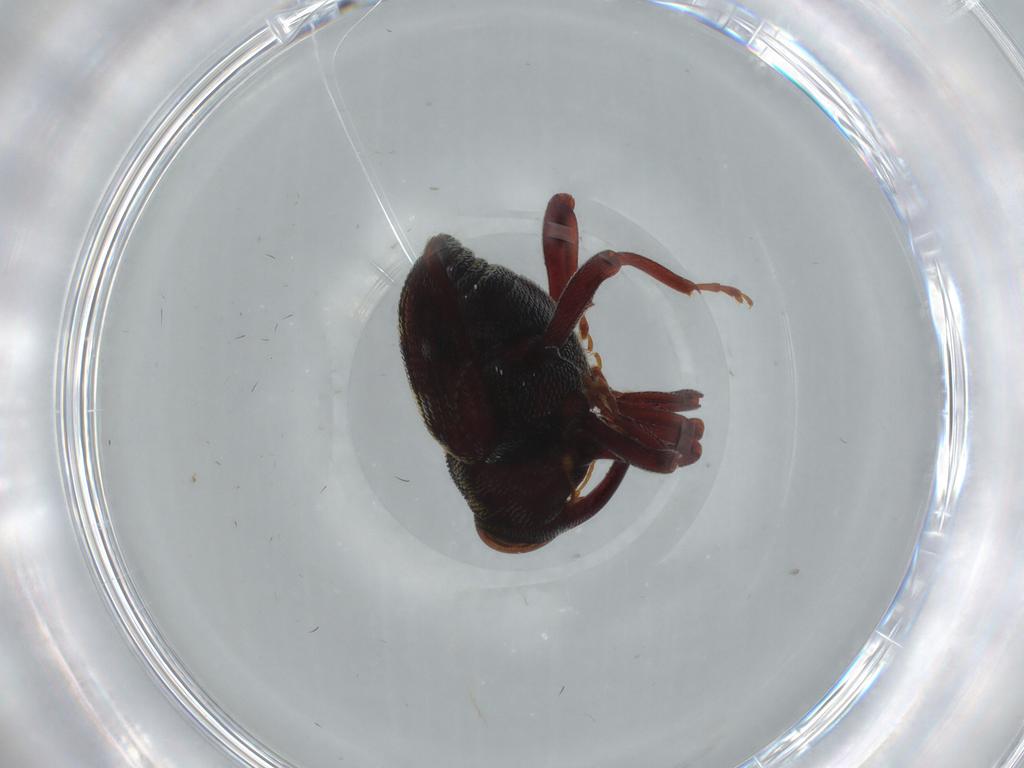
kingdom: Animalia
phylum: Arthropoda
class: Insecta
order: Coleoptera
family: Curculionidae
